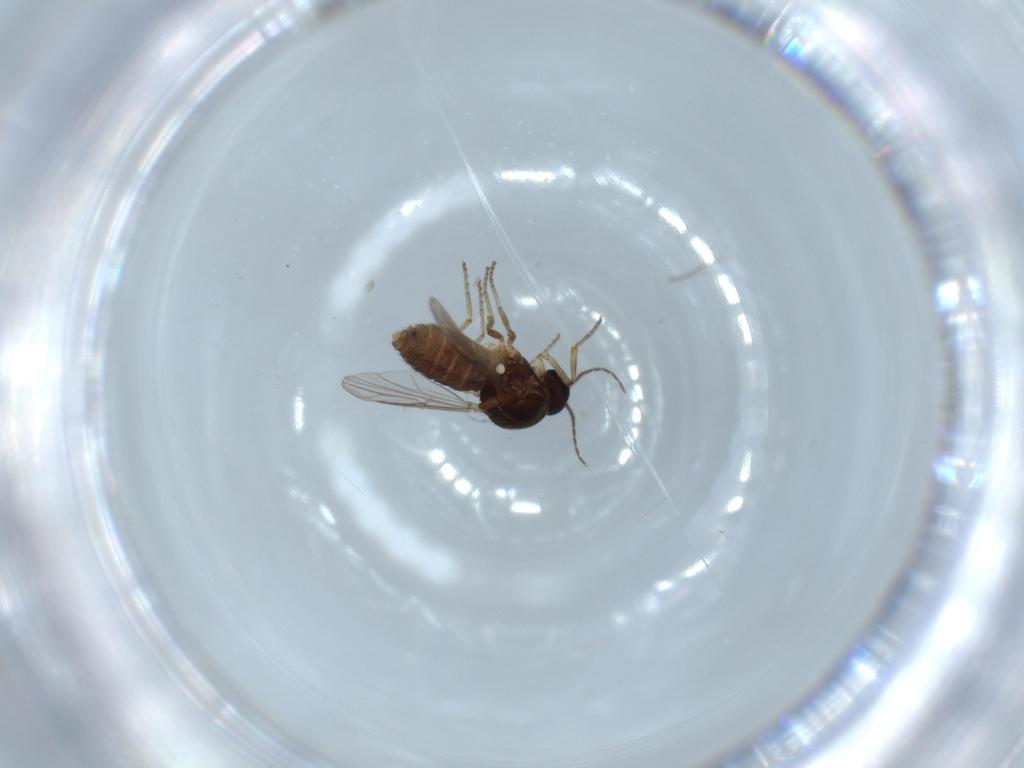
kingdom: Animalia
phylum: Arthropoda
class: Insecta
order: Diptera
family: Ceratopogonidae
